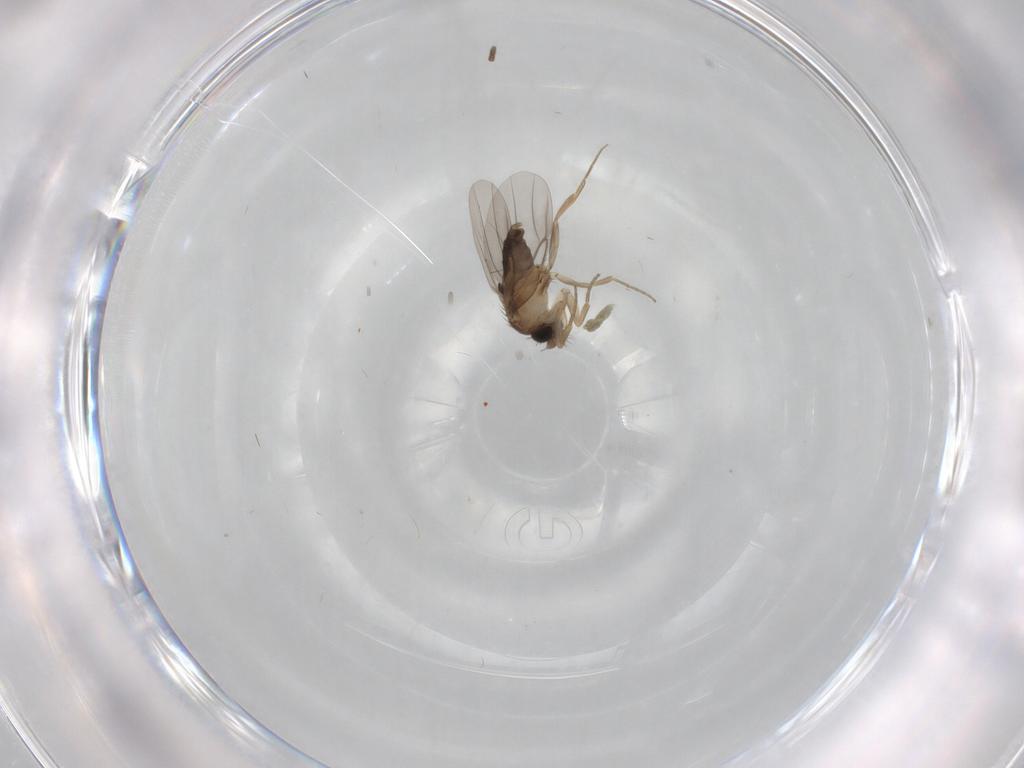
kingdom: Animalia
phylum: Arthropoda
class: Insecta
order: Diptera
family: Phoridae
